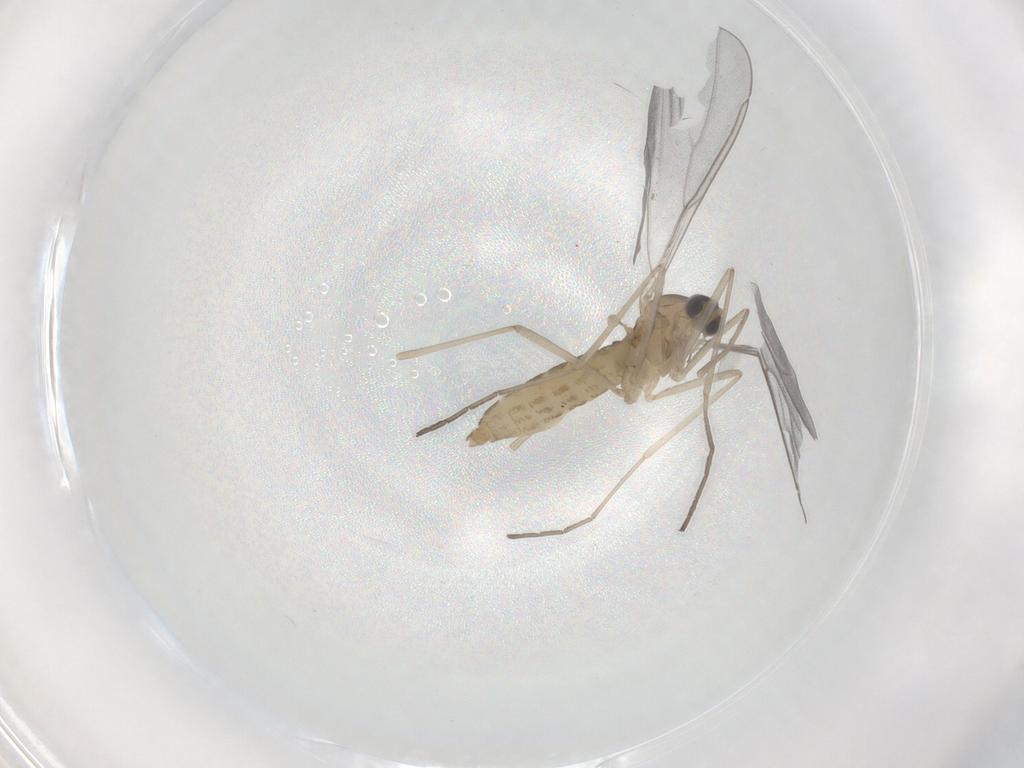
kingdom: Animalia
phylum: Arthropoda
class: Insecta
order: Diptera
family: Cecidomyiidae
